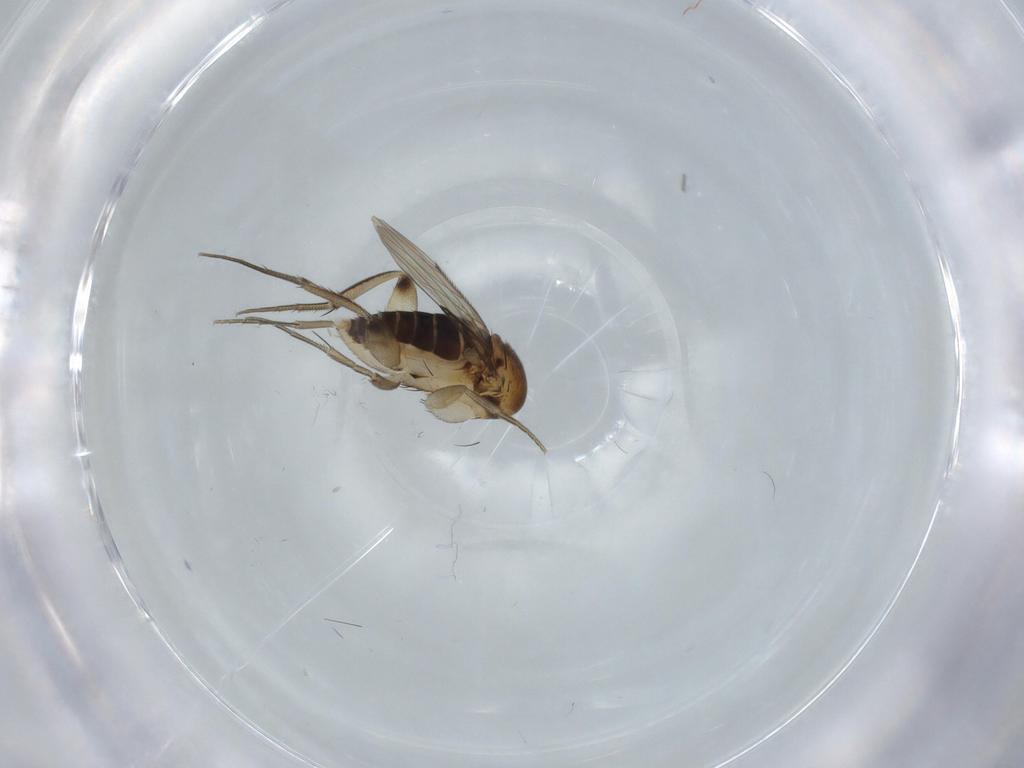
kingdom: Animalia
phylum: Arthropoda
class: Insecta
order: Diptera
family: Phoridae
